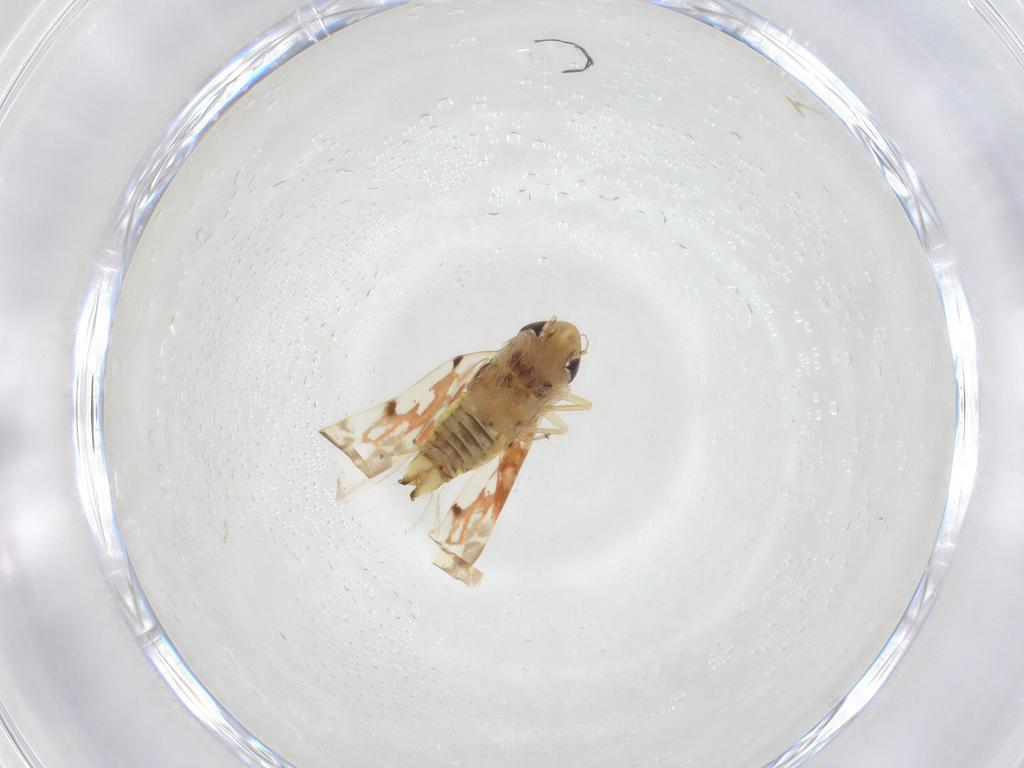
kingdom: Animalia
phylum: Arthropoda
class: Insecta
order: Hemiptera
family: Cicadellidae
